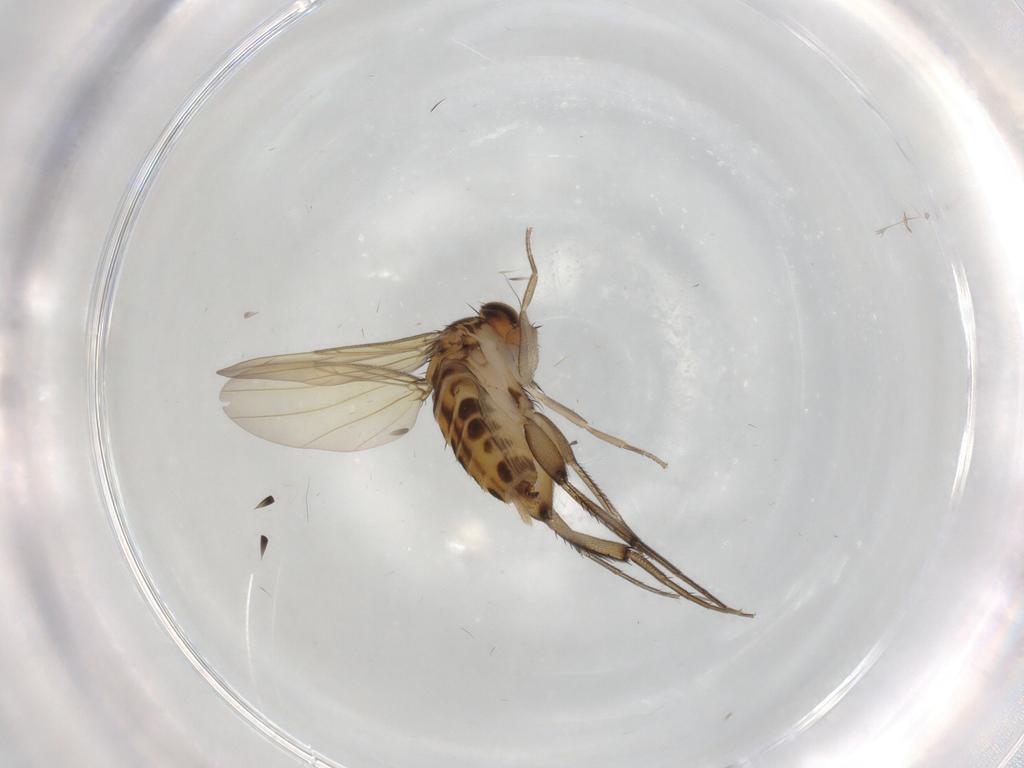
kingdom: Animalia
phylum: Arthropoda
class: Insecta
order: Diptera
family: Phoridae
